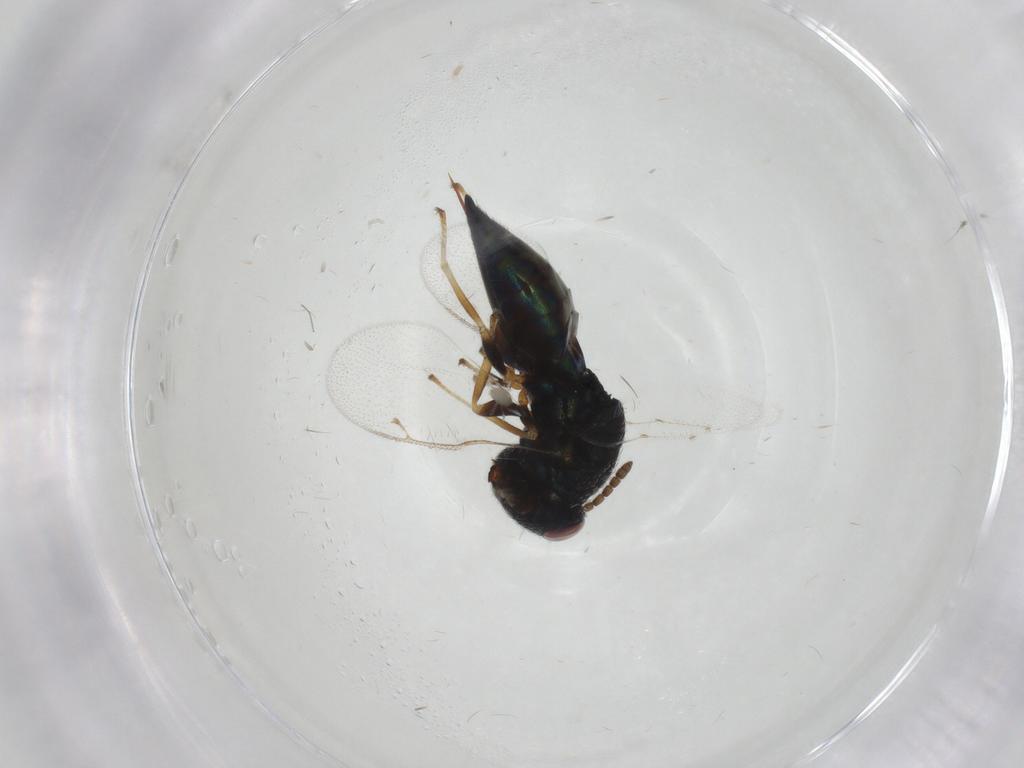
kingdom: Animalia
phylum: Arthropoda
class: Insecta
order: Hymenoptera
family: Pteromalidae
